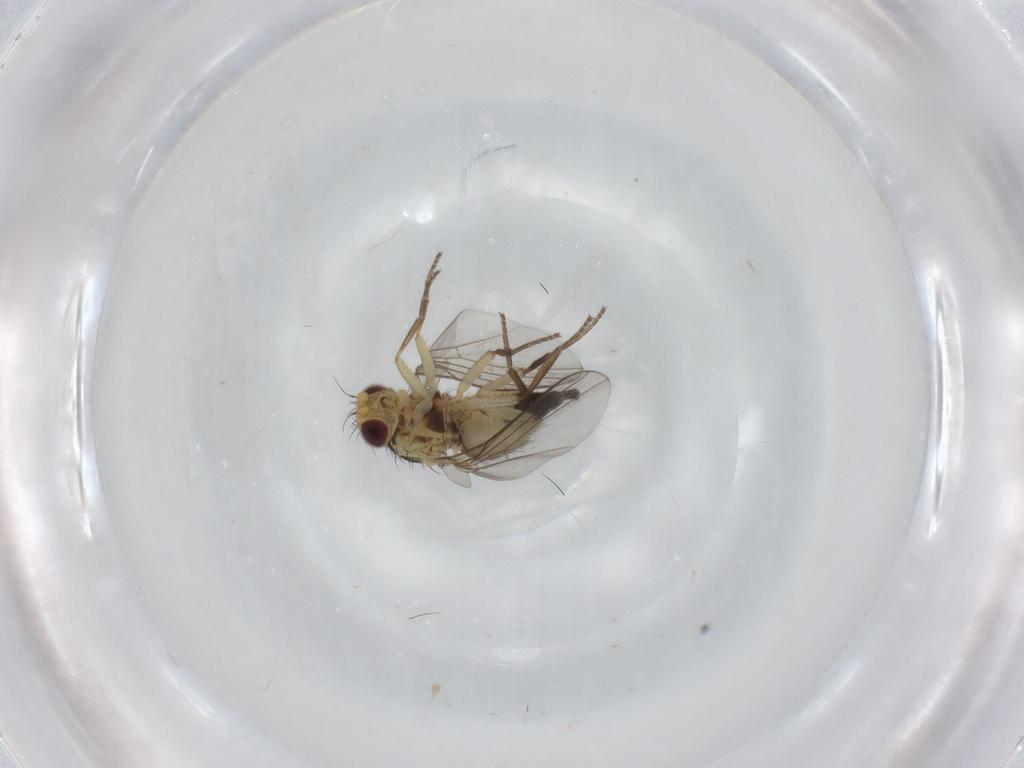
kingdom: Animalia
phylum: Arthropoda
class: Insecta
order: Diptera
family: Agromyzidae
